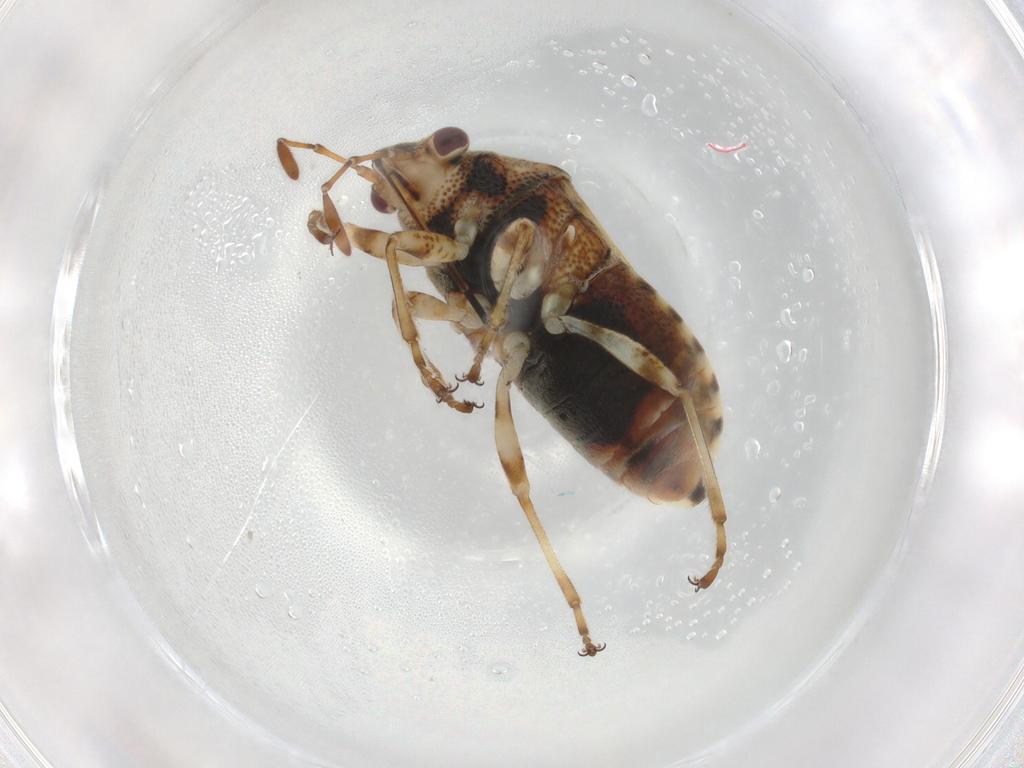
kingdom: Animalia
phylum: Arthropoda
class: Insecta
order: Hemiptera
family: Lygaeidae
